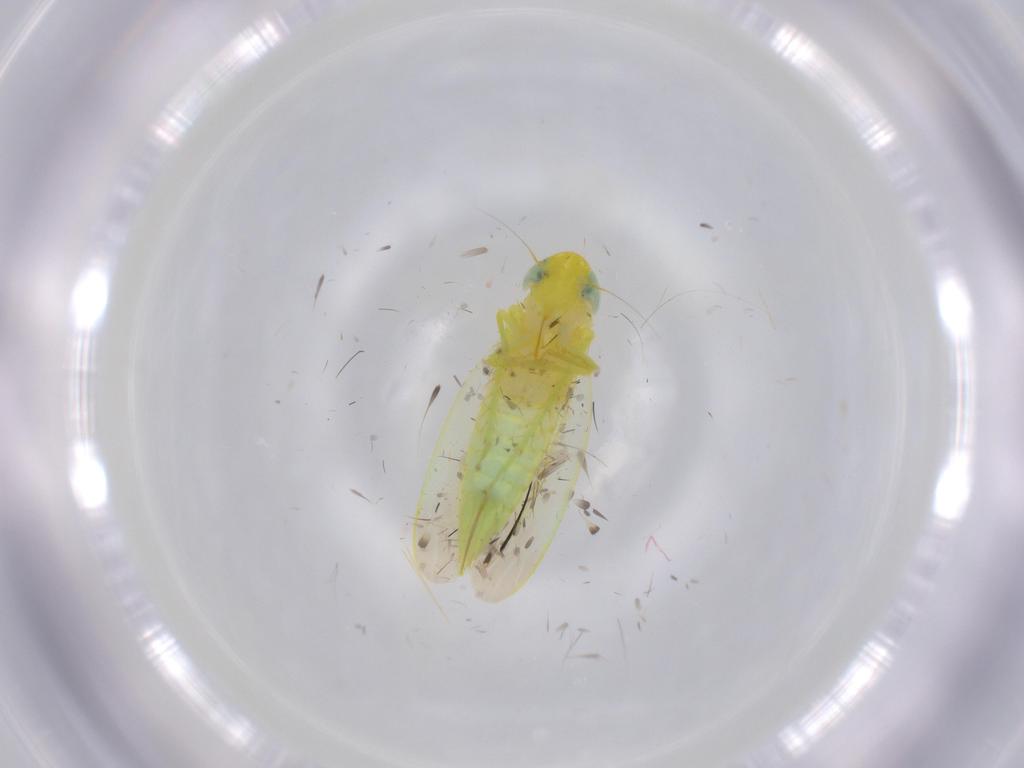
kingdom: Animalia
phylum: Arthropoda
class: Insecta
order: Hemiptera
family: Cicadellidae
